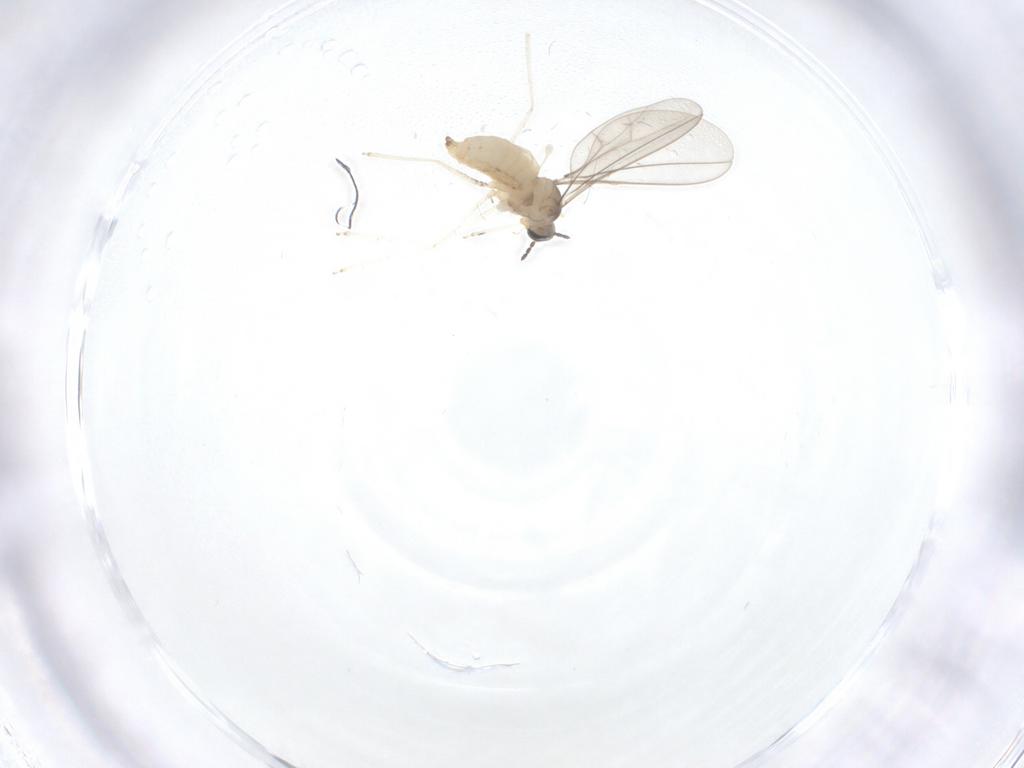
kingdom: Animalia
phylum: Arthropoda
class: Insecta
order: Diptera
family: Cecidomyiidae
